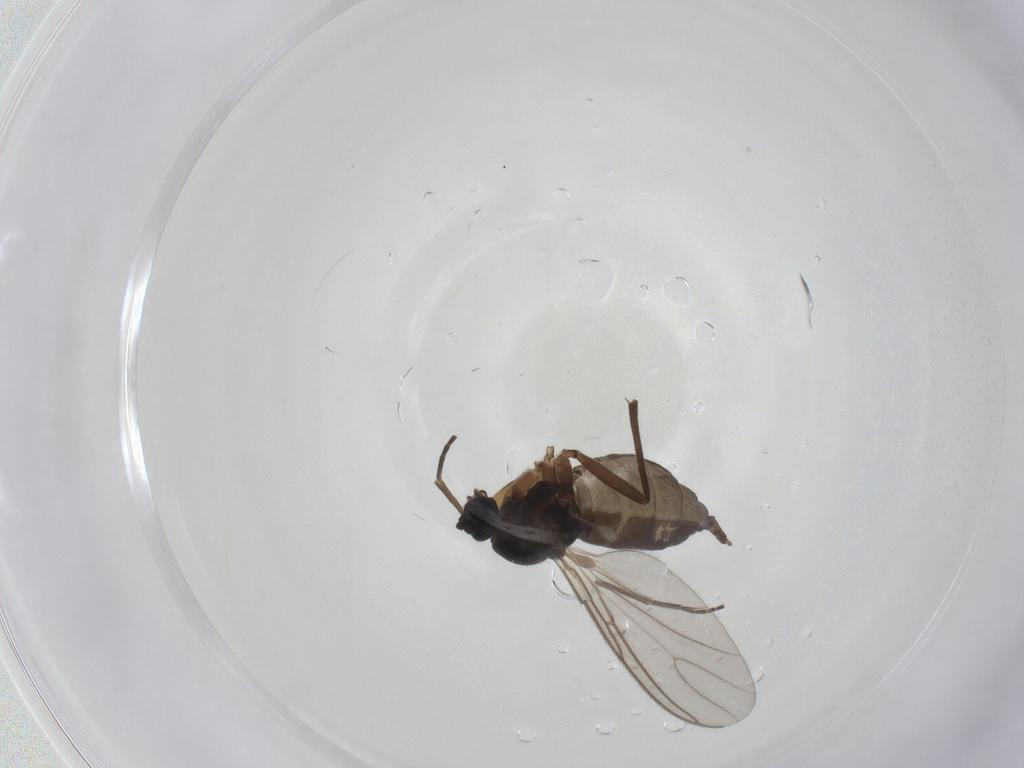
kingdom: Animalia
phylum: Arthropoda
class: Insecta
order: Diptera
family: Sciaridae
